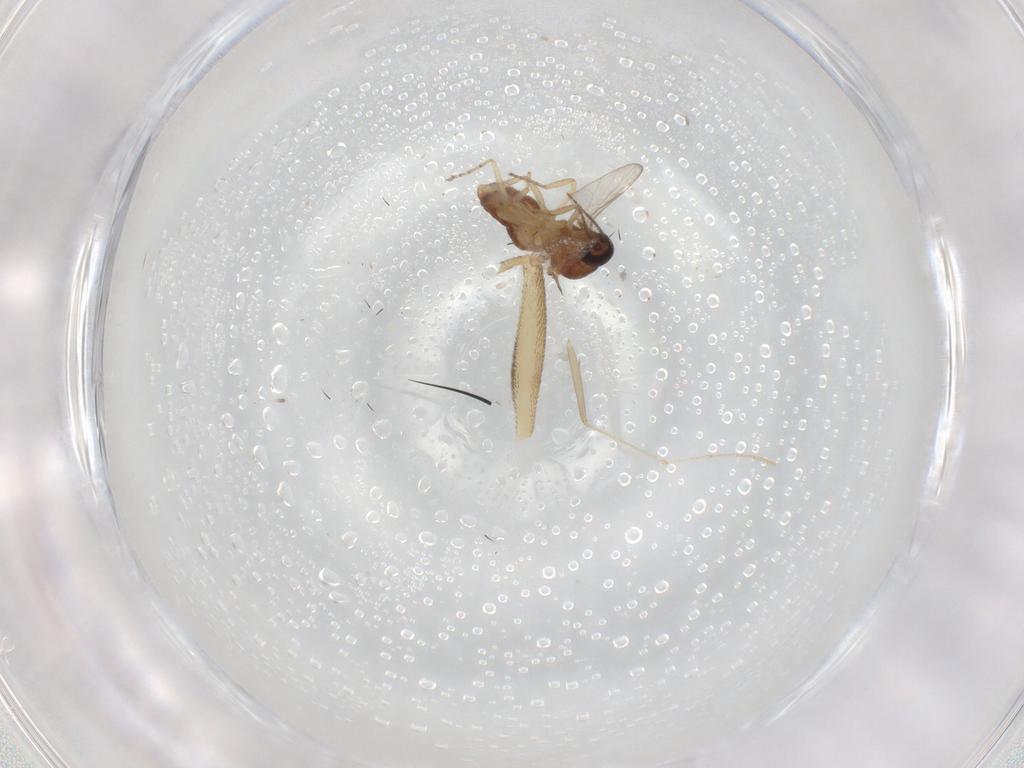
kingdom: Animalia
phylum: Arthropoda
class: Insecta
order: Diptera
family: Ceratopogonidae
